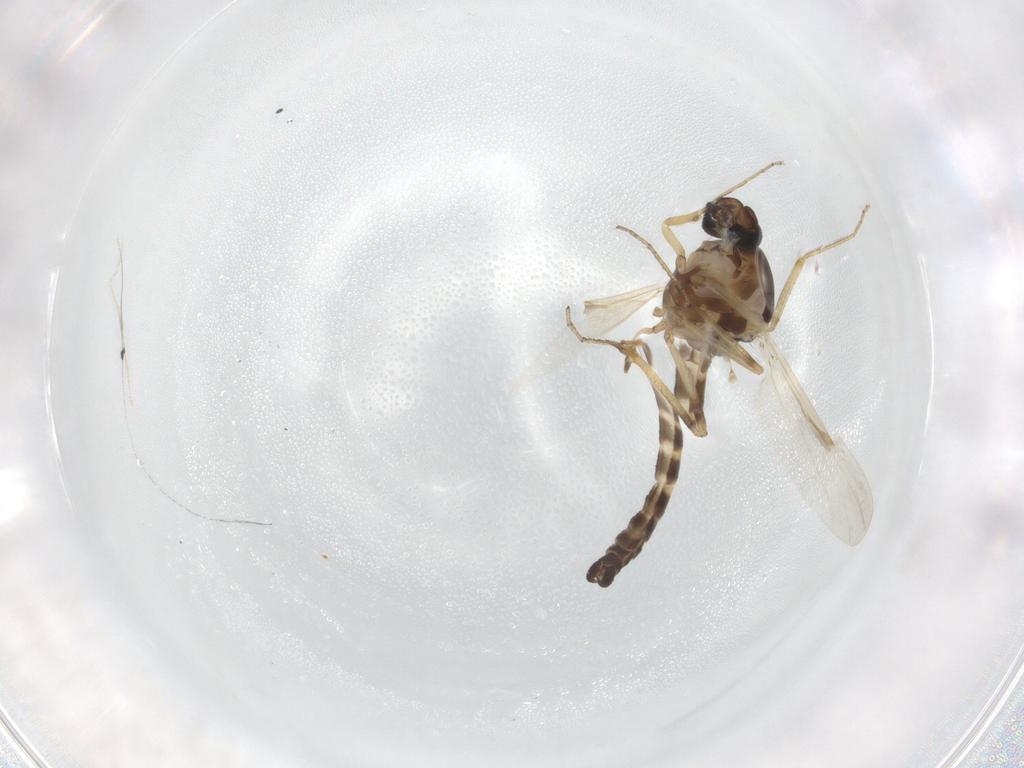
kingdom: Animalia
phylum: Arthropoda
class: Insecta
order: Diptera
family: Ceratopogonidae
